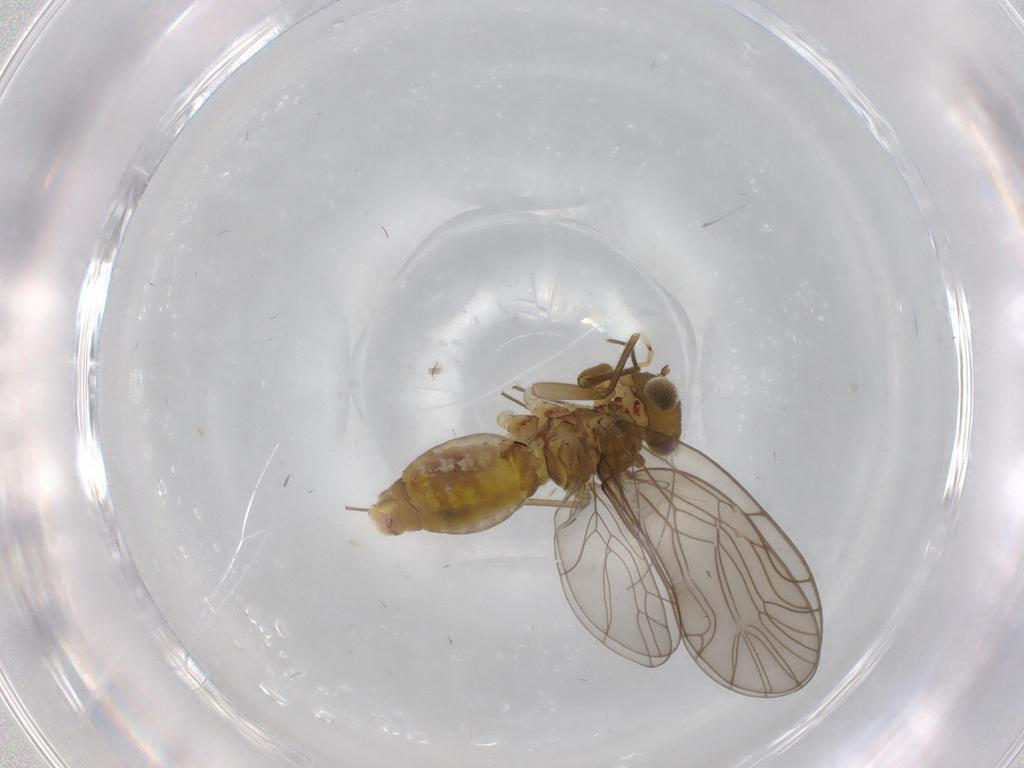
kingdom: Animalia
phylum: Arthropoda
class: Insecta
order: Psocodea
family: Philotarsidae
